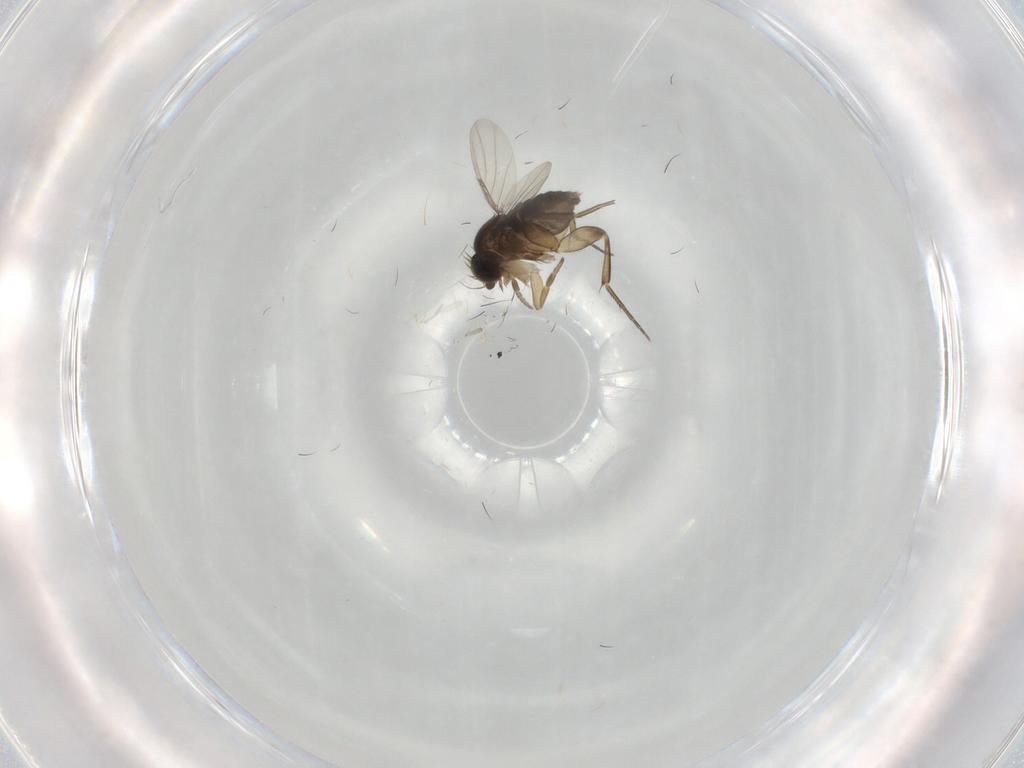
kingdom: Animalia
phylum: Arthropoda
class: Insecta
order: Diptera
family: Phoridae
